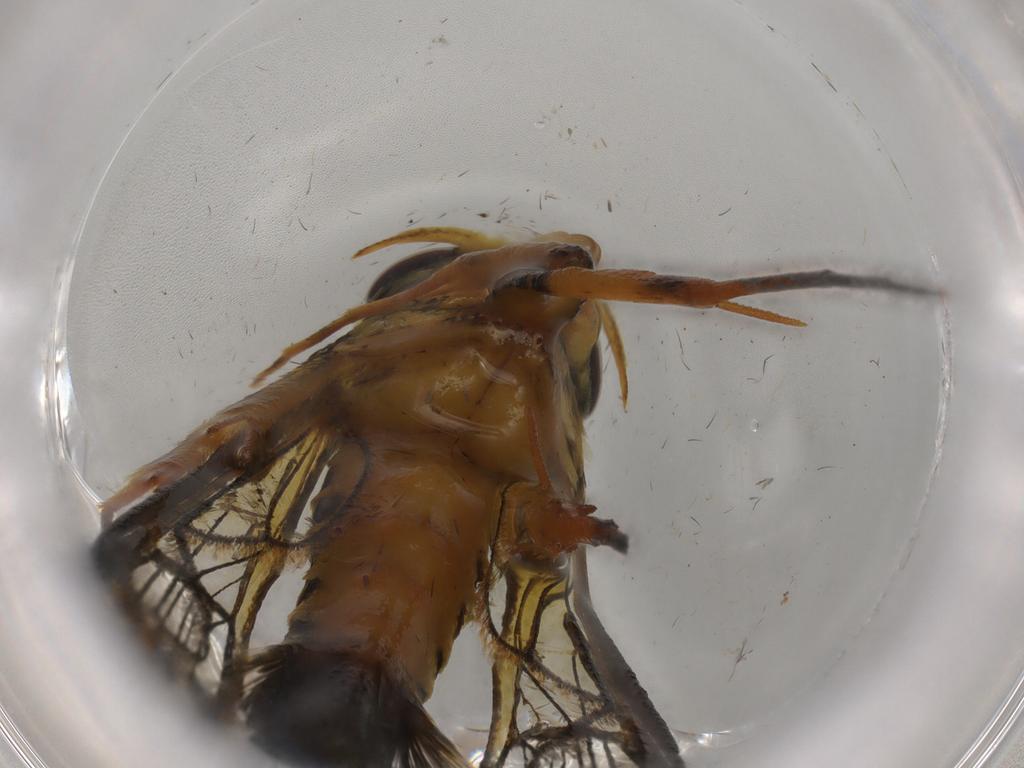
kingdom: Animalia
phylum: Arthropoda
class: Insecta
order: Lepidoptera
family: Sesiidae
